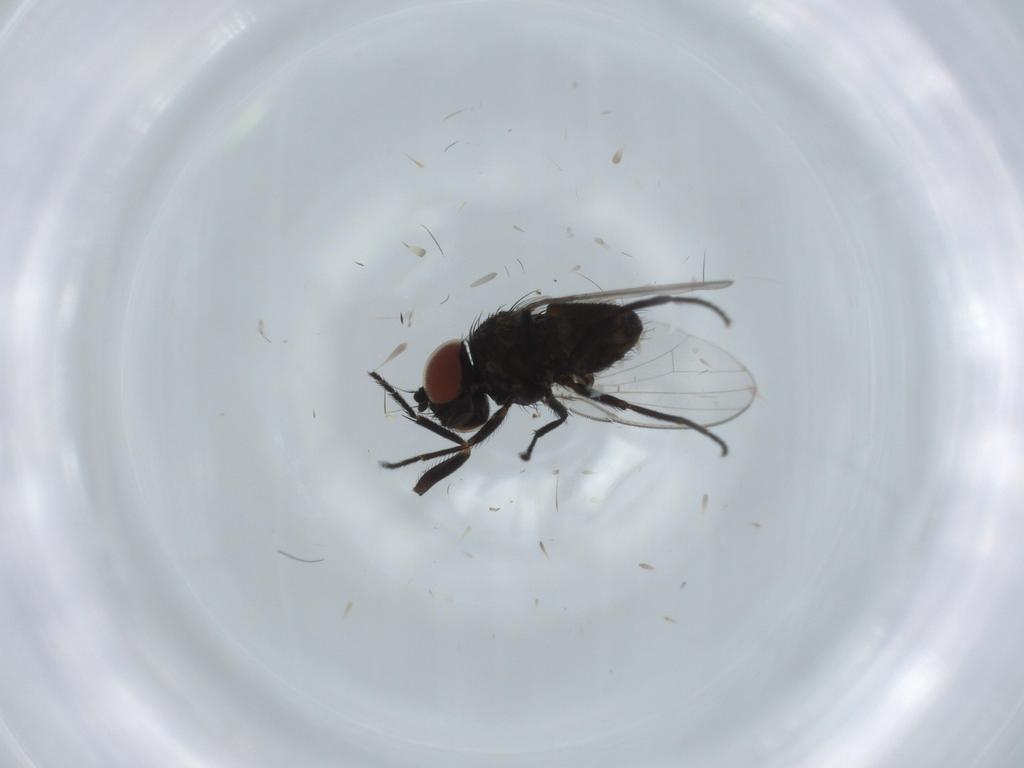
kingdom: Animalia
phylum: Arthropoda
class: Insecta
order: Diptera
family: Milichiidae
